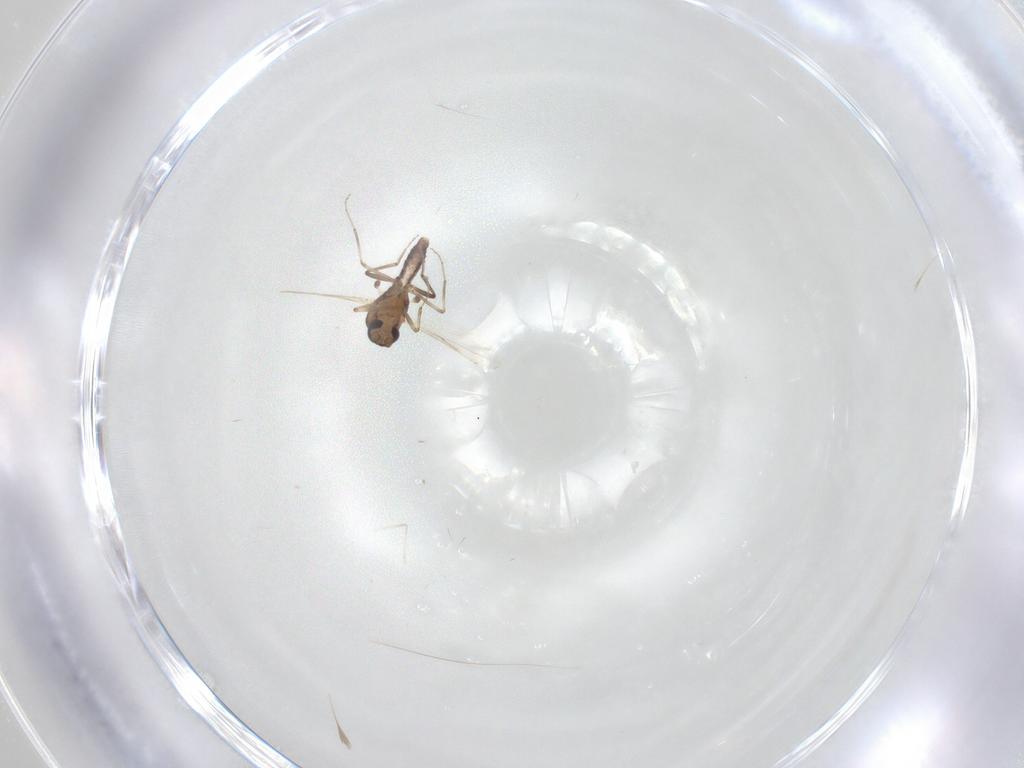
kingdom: Animalia
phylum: Arthropoda
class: Insecta
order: Diptera
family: Ceratopogonidae
